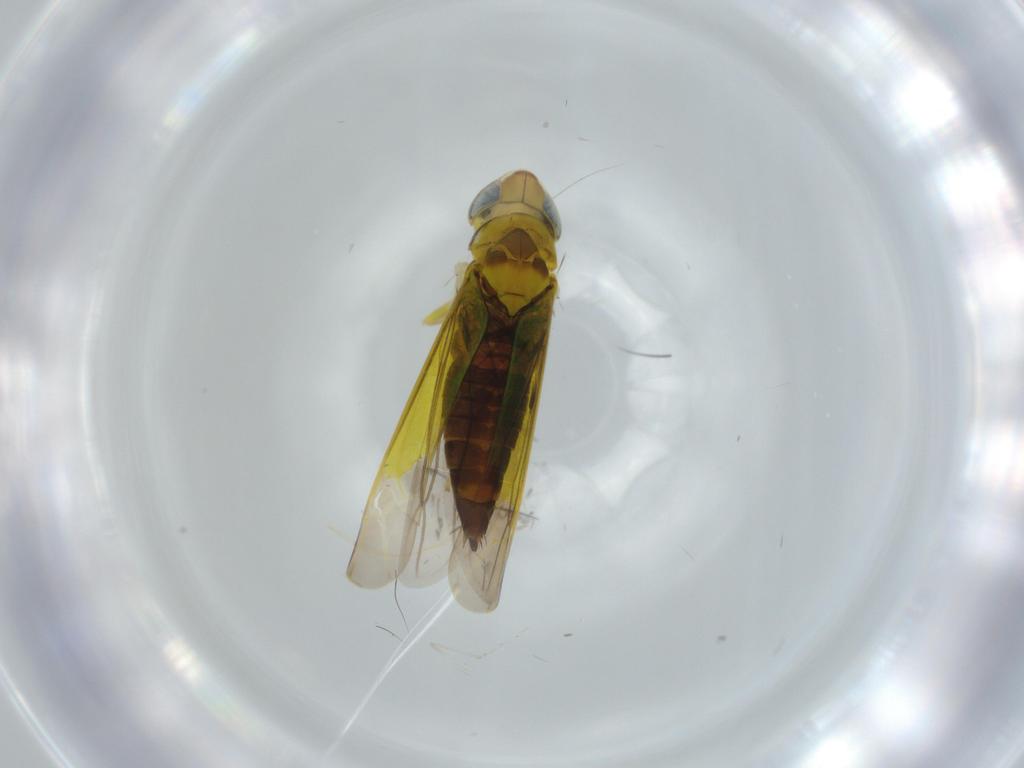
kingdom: Animalia
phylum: Arthropoda
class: Insecta
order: Hemiptera
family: Cicadellidae
